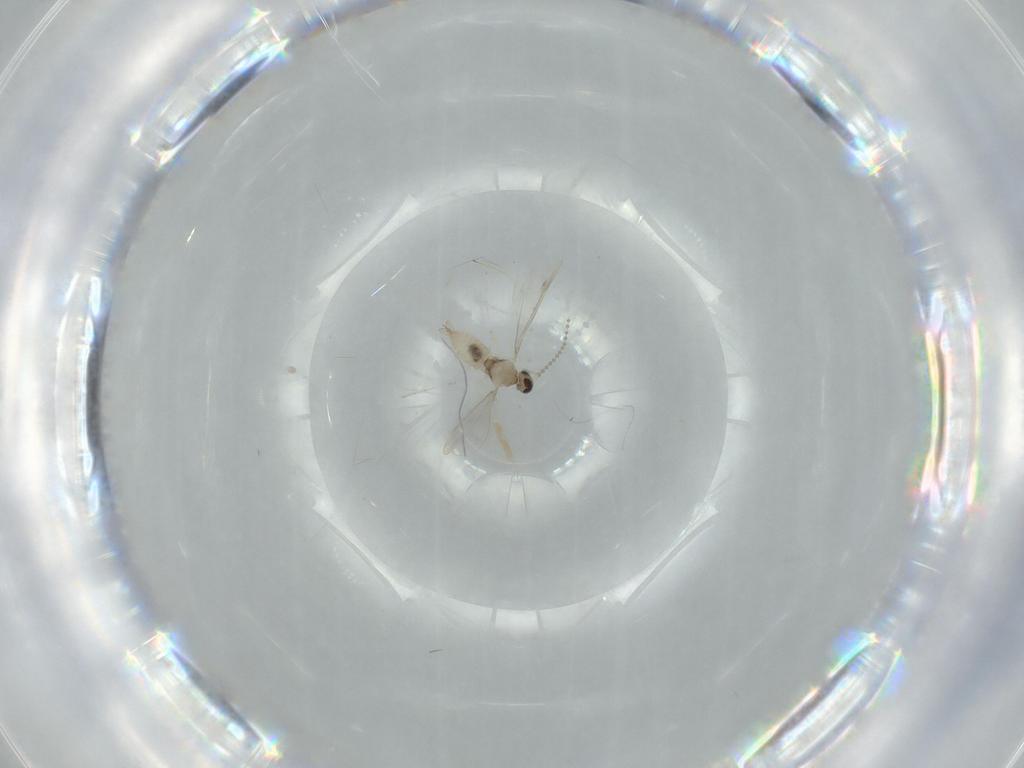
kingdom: Animalia
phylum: Arthropoda
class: Insecta
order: Diptera
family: Cecidomyiidae
